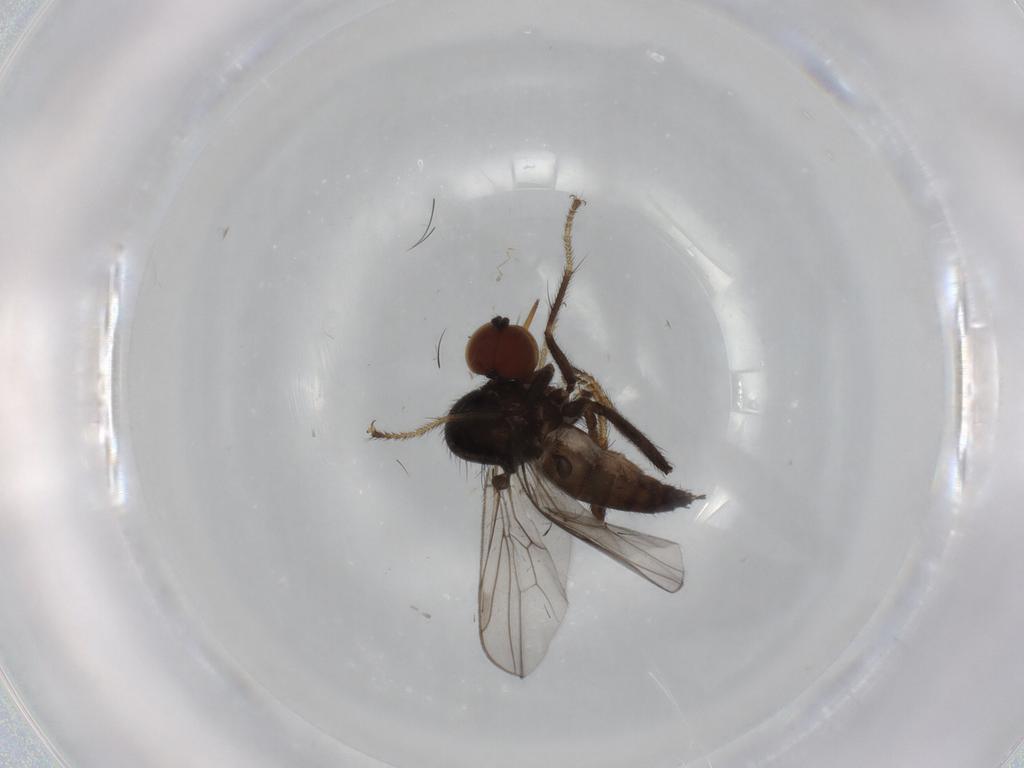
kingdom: Animalia
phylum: Arthropoda
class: Insecta
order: Diptera
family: Hybotidae
